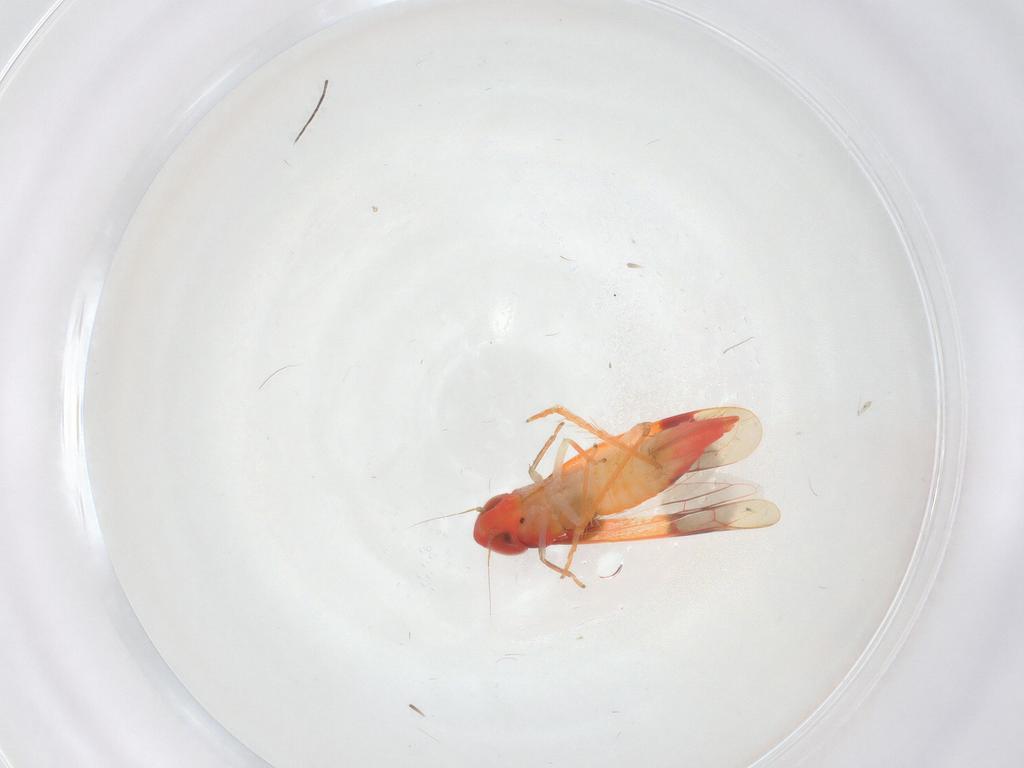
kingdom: Animalia
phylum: Arthropoda
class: Insecta
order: Hemiptera
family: Cicadellidae
